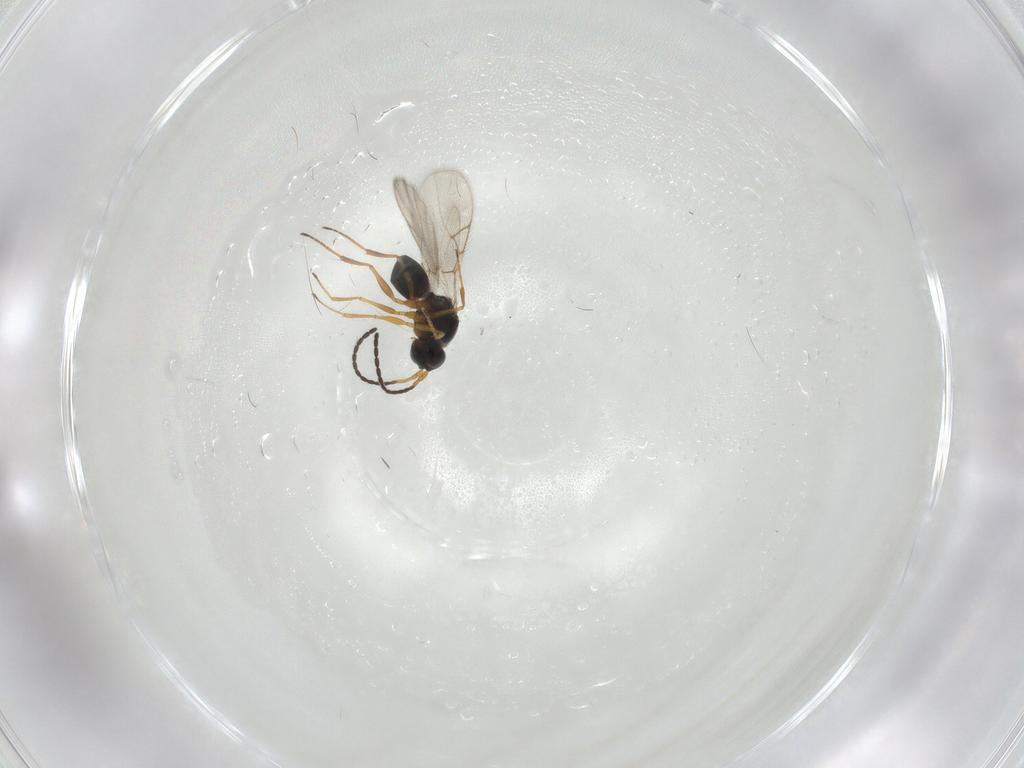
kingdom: Animalia
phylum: Arthropoda
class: Insecta
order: Hymenoptera
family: Figitidae
